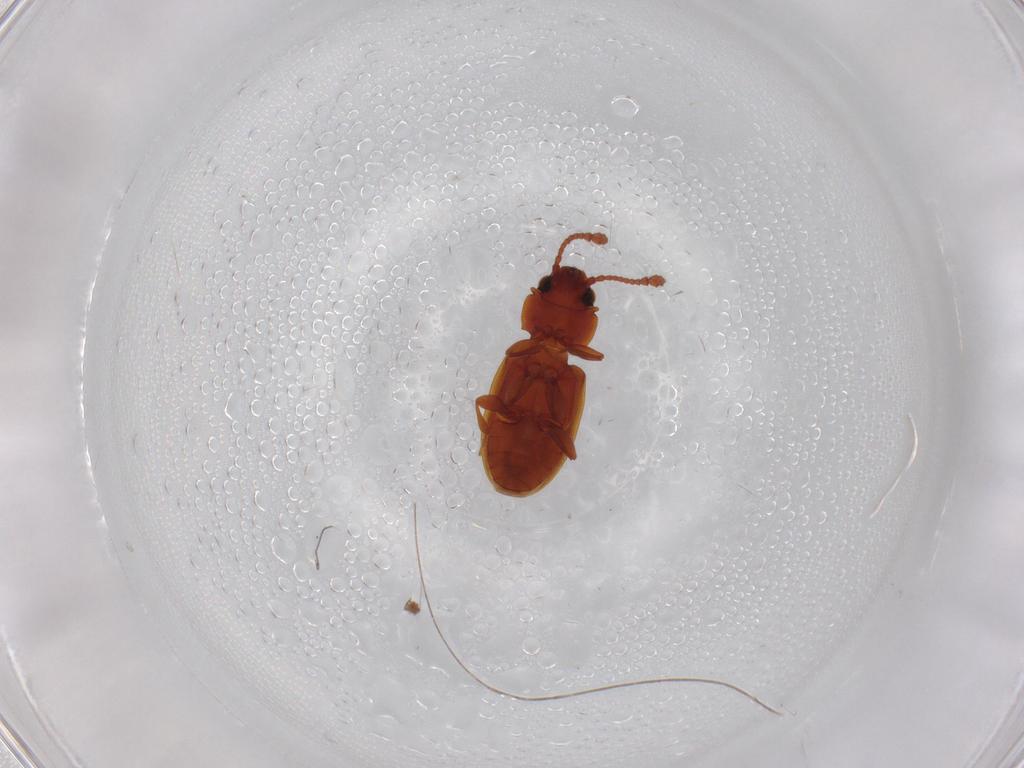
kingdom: Animalia
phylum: Arthropoda
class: Insecta
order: Coleoptera
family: Silvanidae
